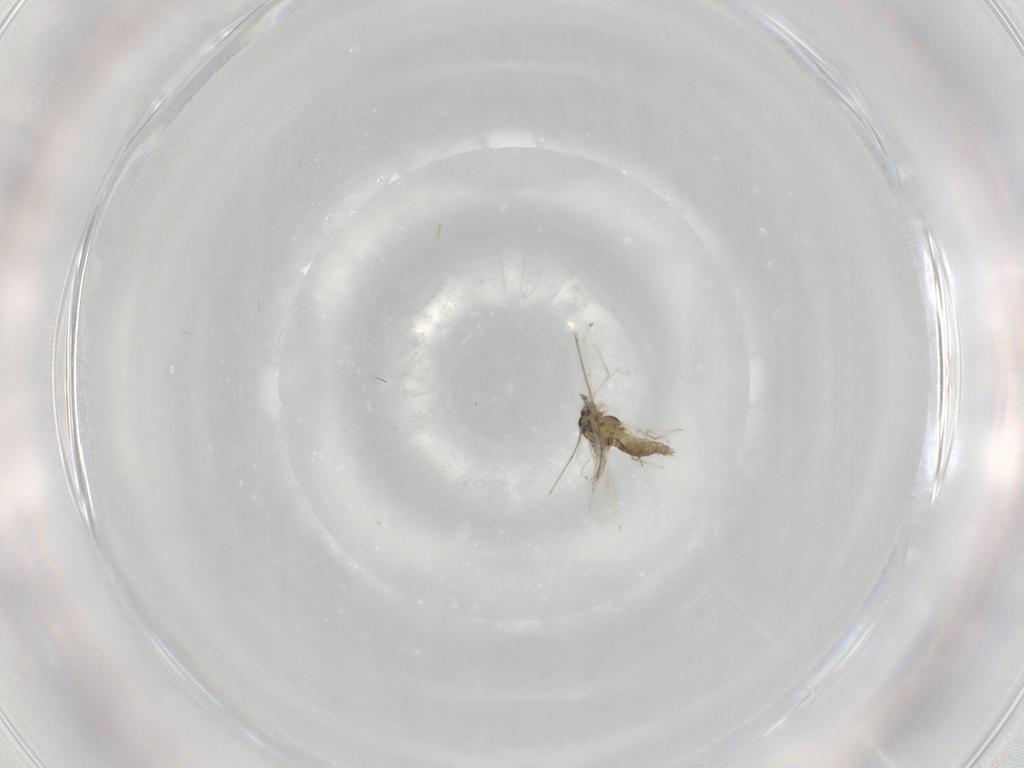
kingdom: Animalia
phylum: Arthropoda
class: Insecta
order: Diptera
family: Cecidomyiidae
